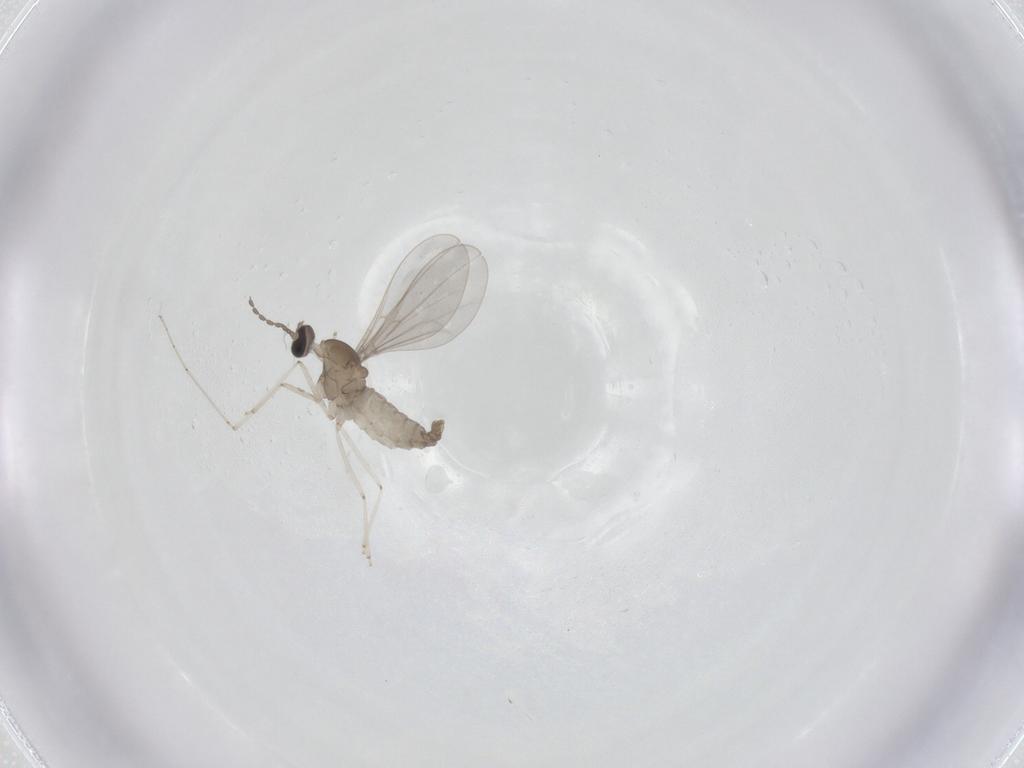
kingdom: Animalia
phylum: Arthropoda
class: Insecta
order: Diptera
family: Cecidomyiidae
